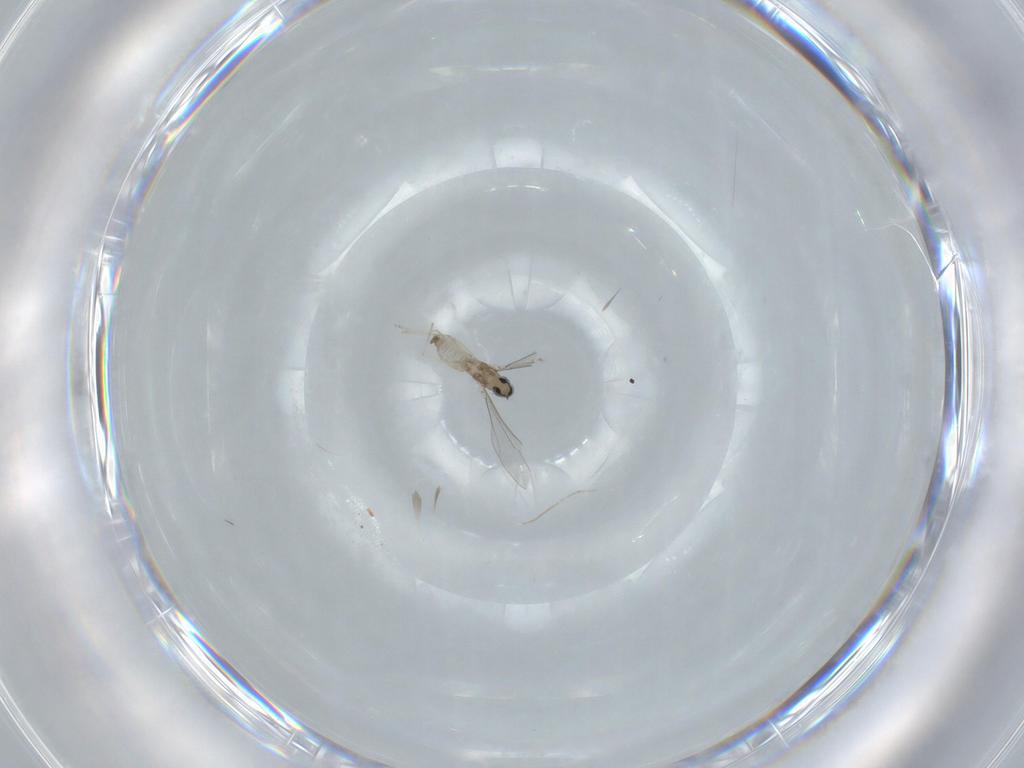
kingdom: Animalia
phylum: Arthropoda
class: Insecta
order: Diptera
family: Cecidomyiidae
